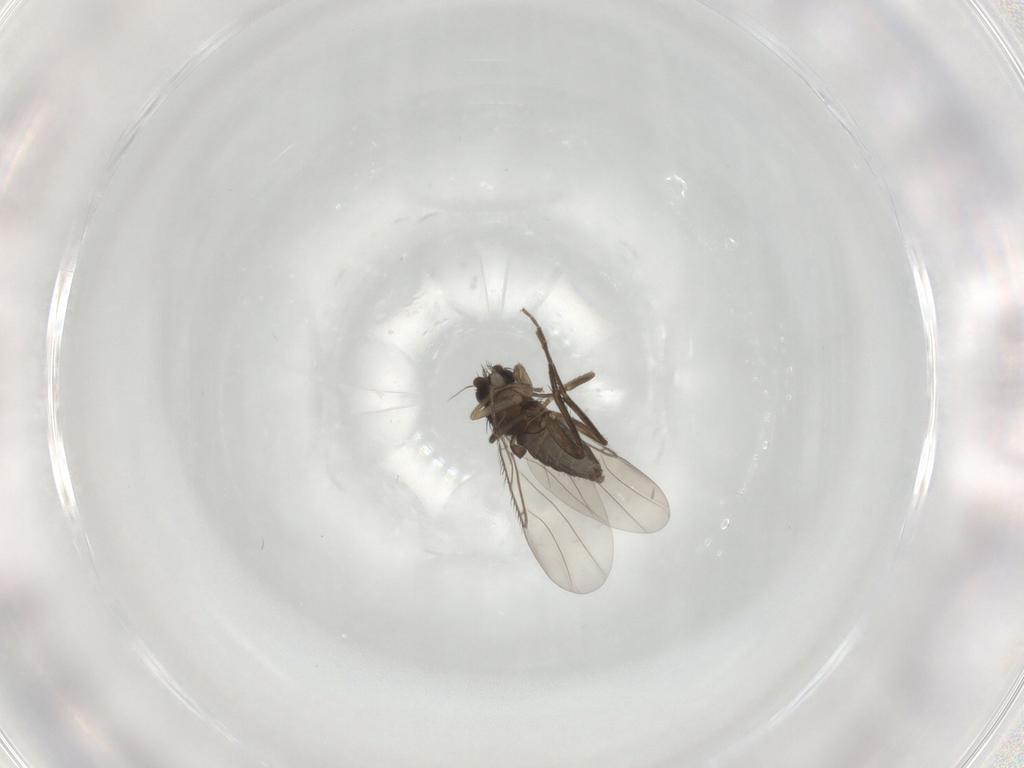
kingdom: Animalia
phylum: Arthropoda
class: Insecta
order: Diptera
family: Phoridae
